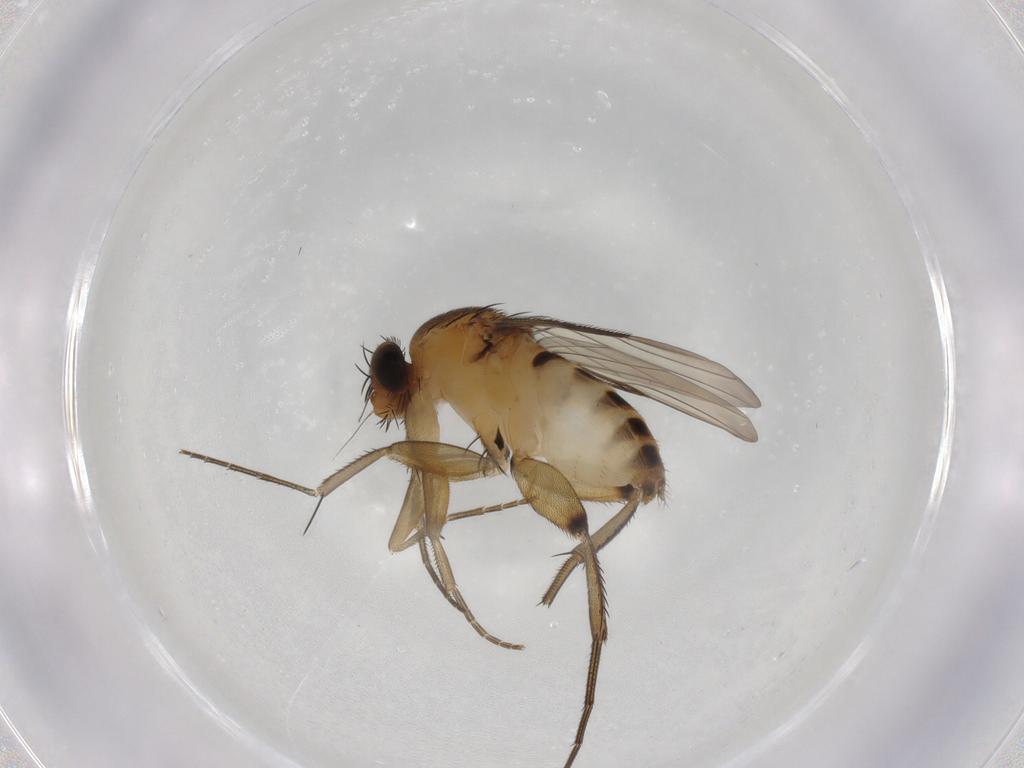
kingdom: Animalia
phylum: Arthropoda
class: Insecta
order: Diptera
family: Phoridae
